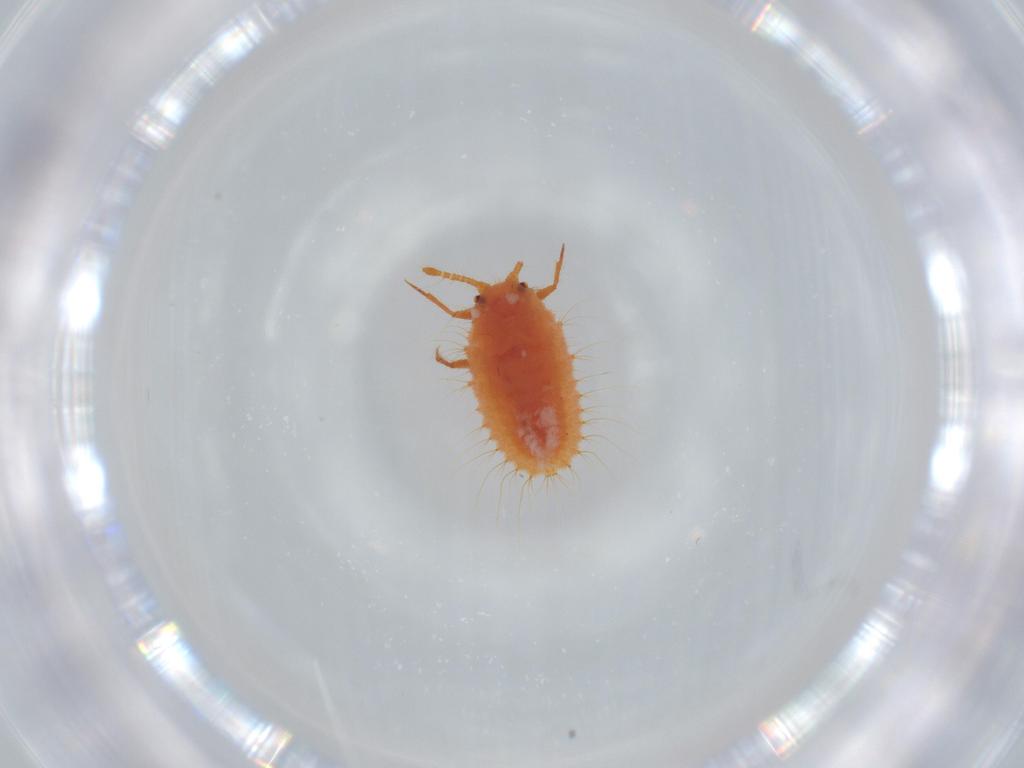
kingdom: Animalia
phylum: Arthropoda
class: Insecta
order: Hemiptera
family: Coccoidea_incertae_sedis
